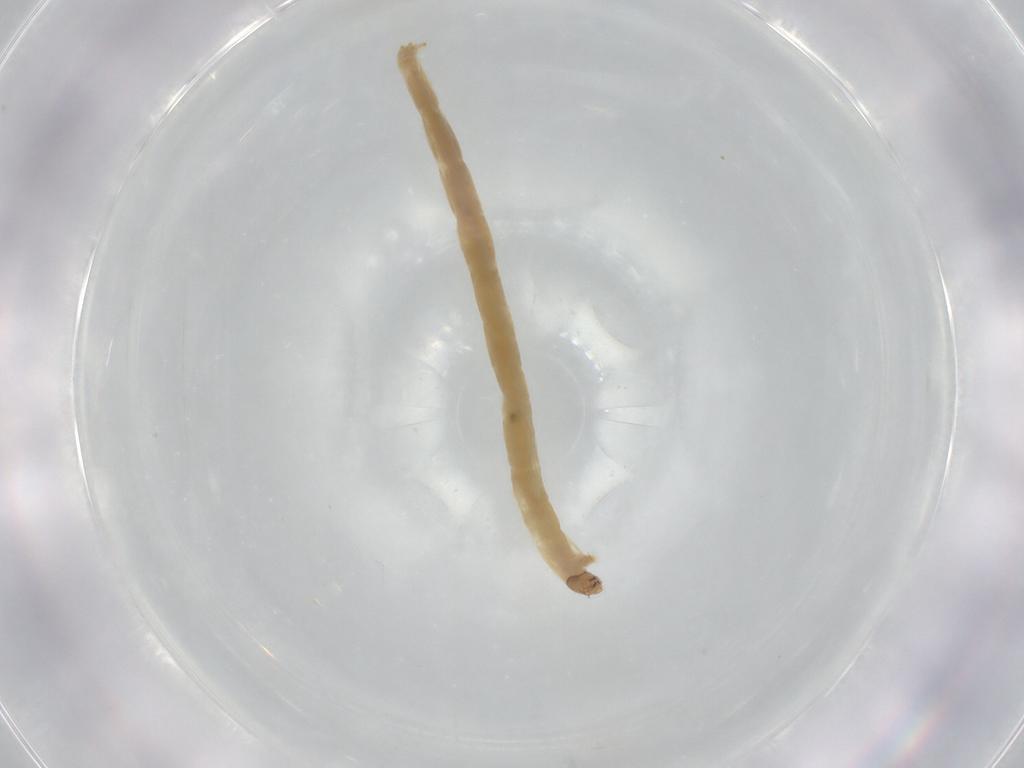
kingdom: Animalia
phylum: Arthropoda
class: Insecta
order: Diptera
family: Chironomidae
